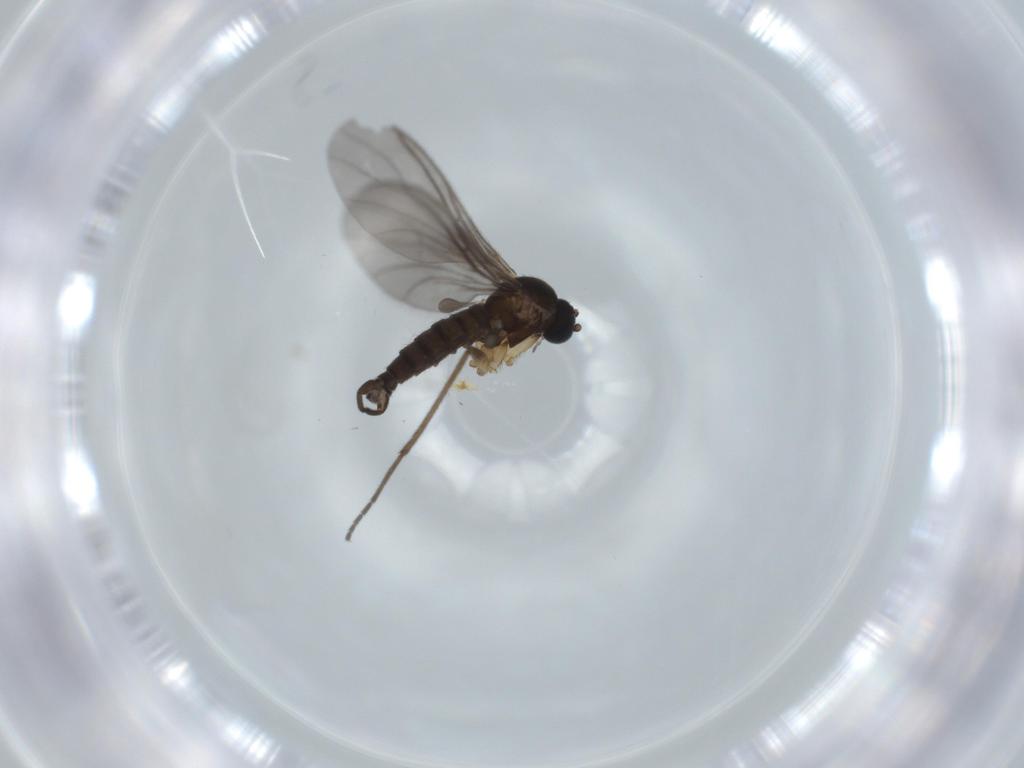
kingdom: Animalia
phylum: Arthropoda
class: Insecta
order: Diptera
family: Sciaridae
